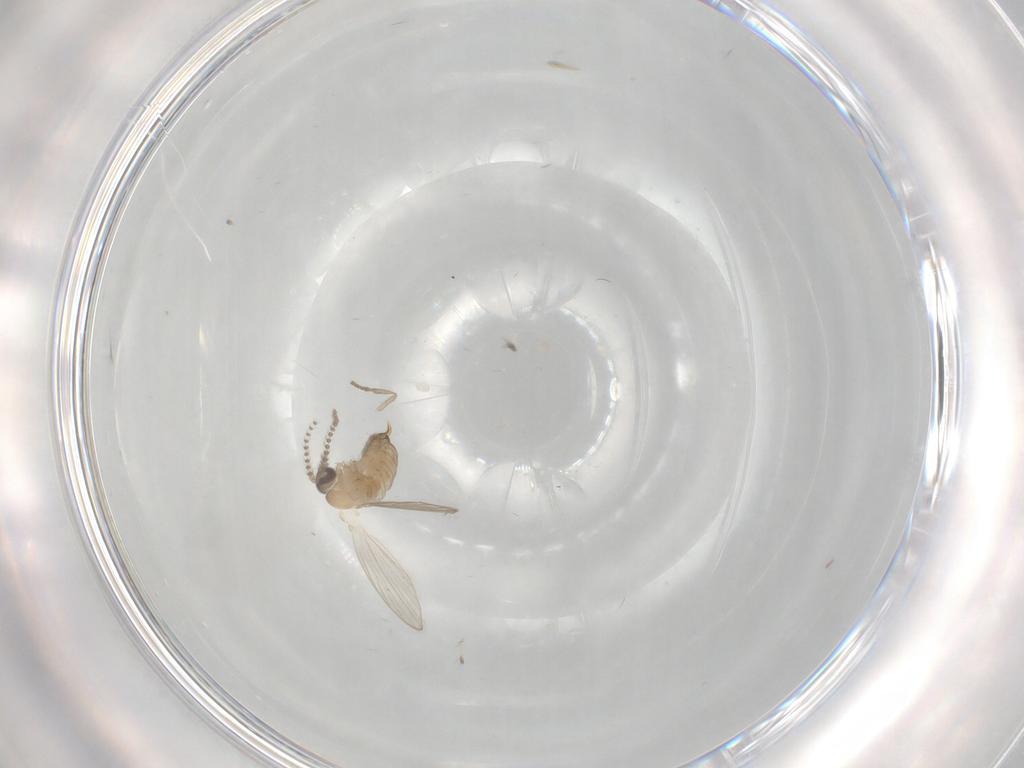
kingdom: Animalia
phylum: Arthropoda
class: Insecta
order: Diptera
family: Psychodidae
